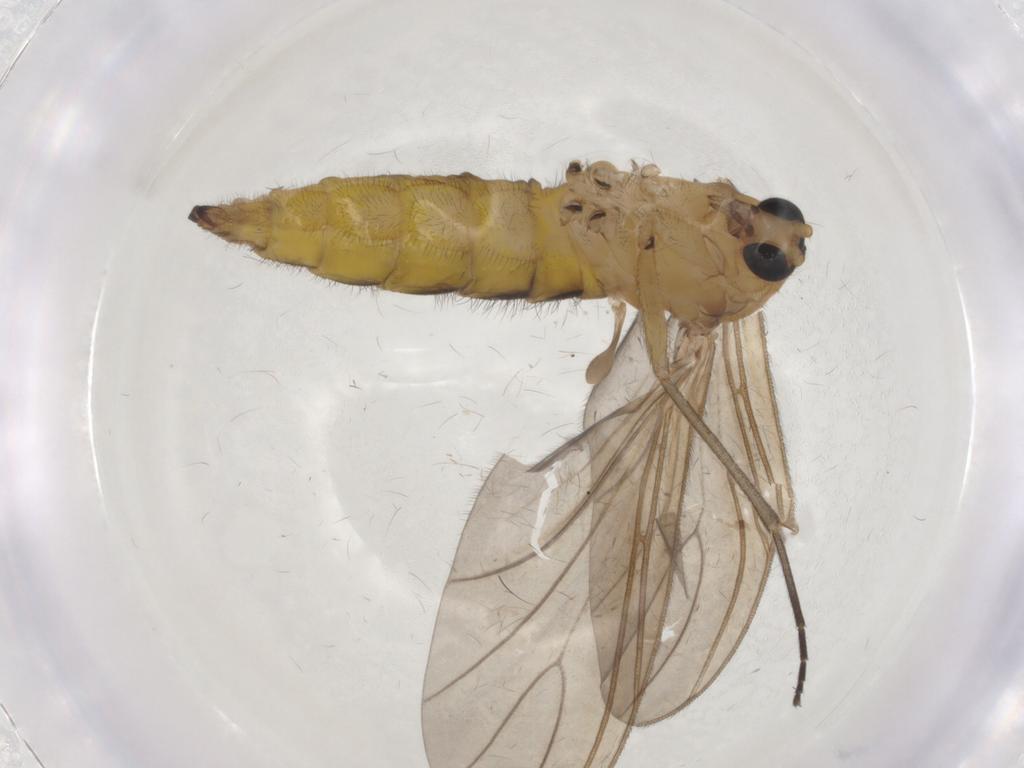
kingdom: Animalia
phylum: Arthropoda
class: Insecta
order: Diptera
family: Sciaridae
